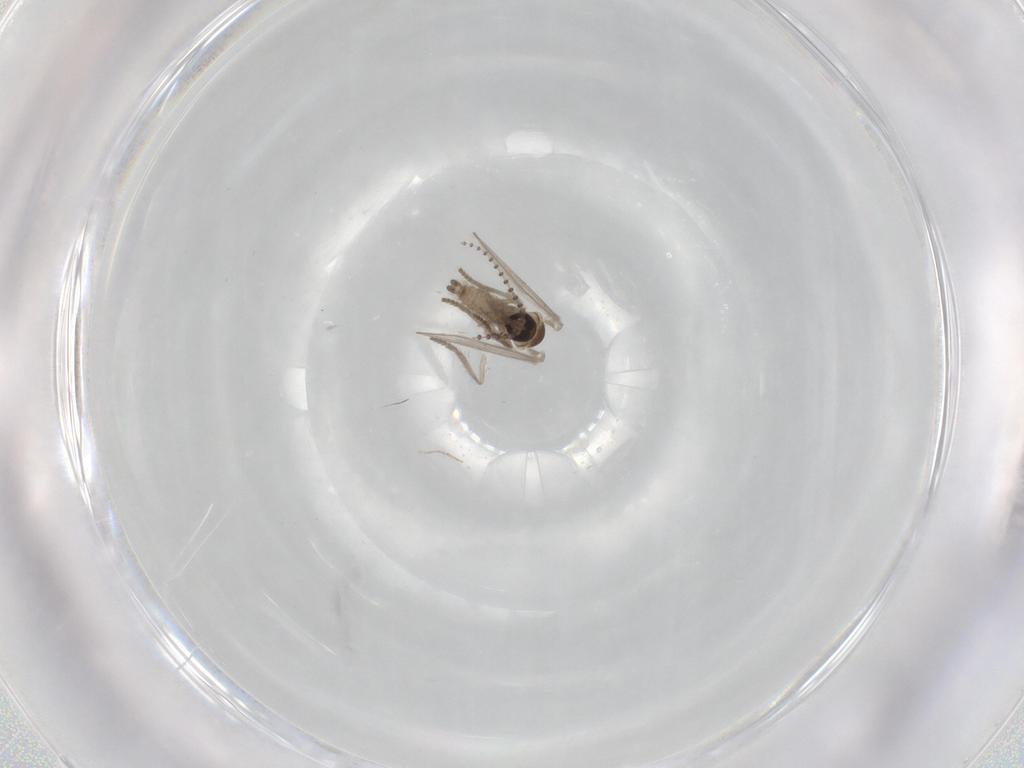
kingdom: Animalia
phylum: Arthropoda
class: Insecta
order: Diptera
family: Psychodidae
